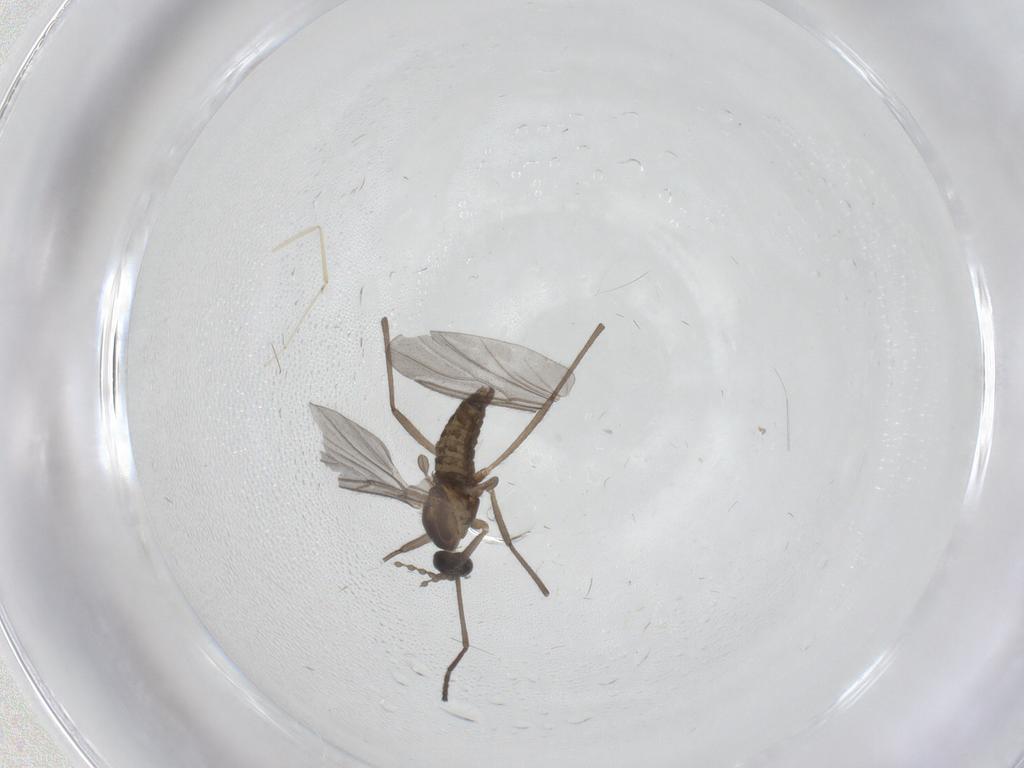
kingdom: Animalia
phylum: Arthropoda
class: Insecta
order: Diptera
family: Cecidomyiidae
